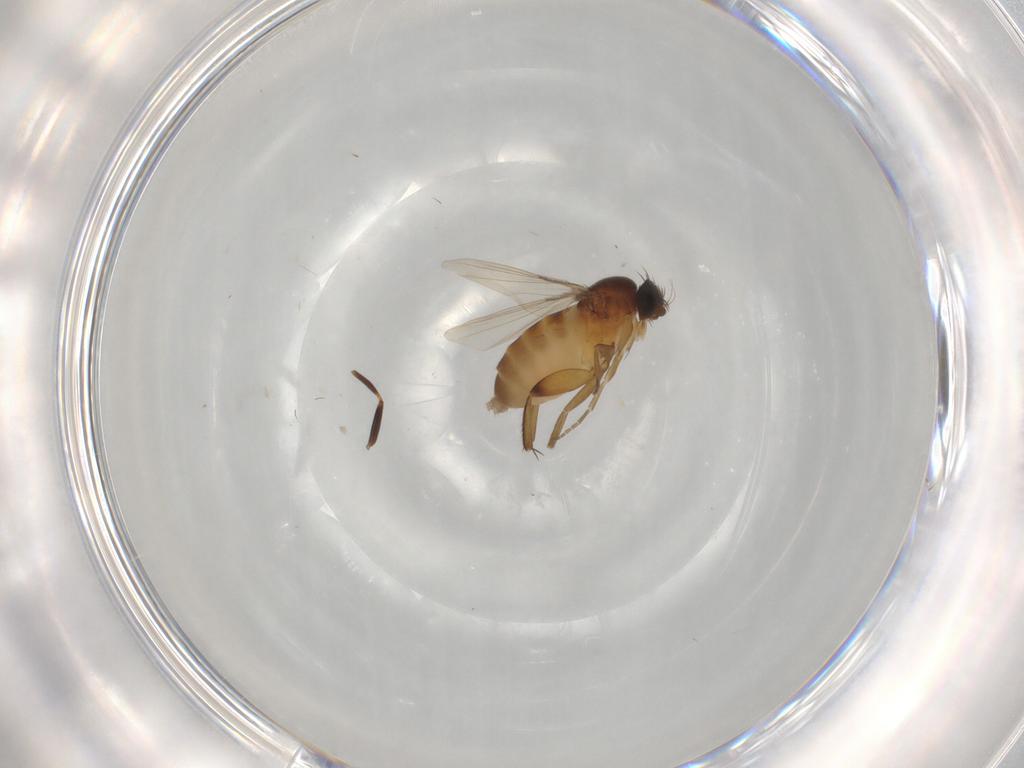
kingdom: Animalia
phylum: Arthropoda
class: Insecta
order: Diptera
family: Phoridae
